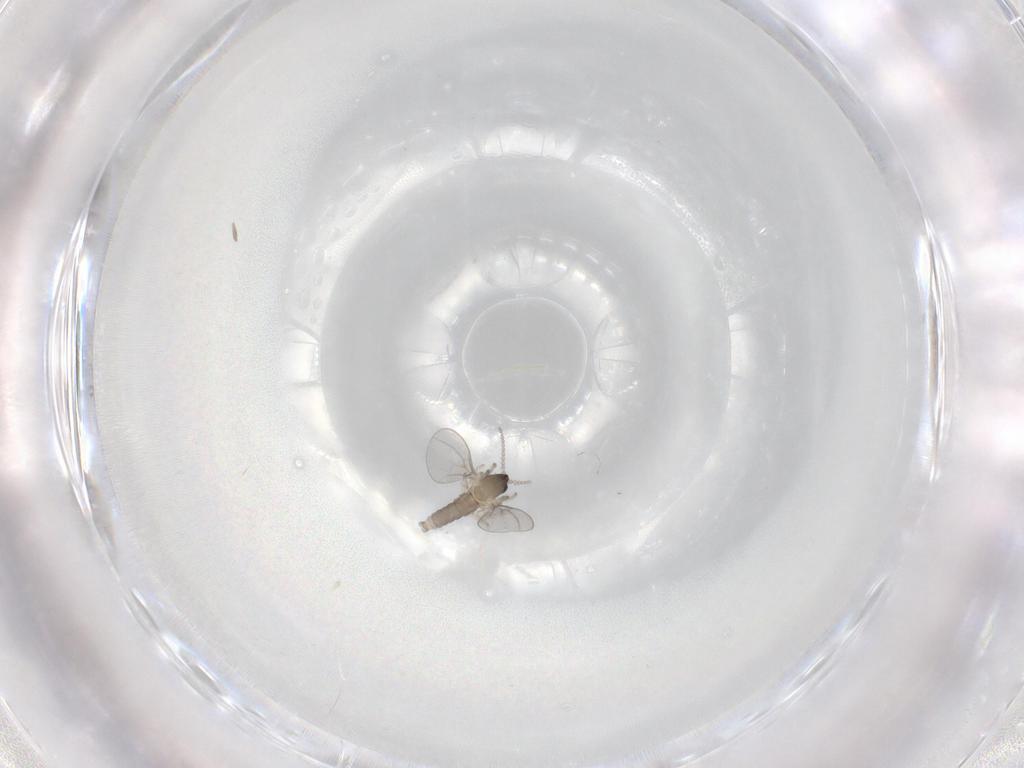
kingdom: Animalia
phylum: Arthropoda
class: Insecta
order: Diptera
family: Cecidomyiidae
